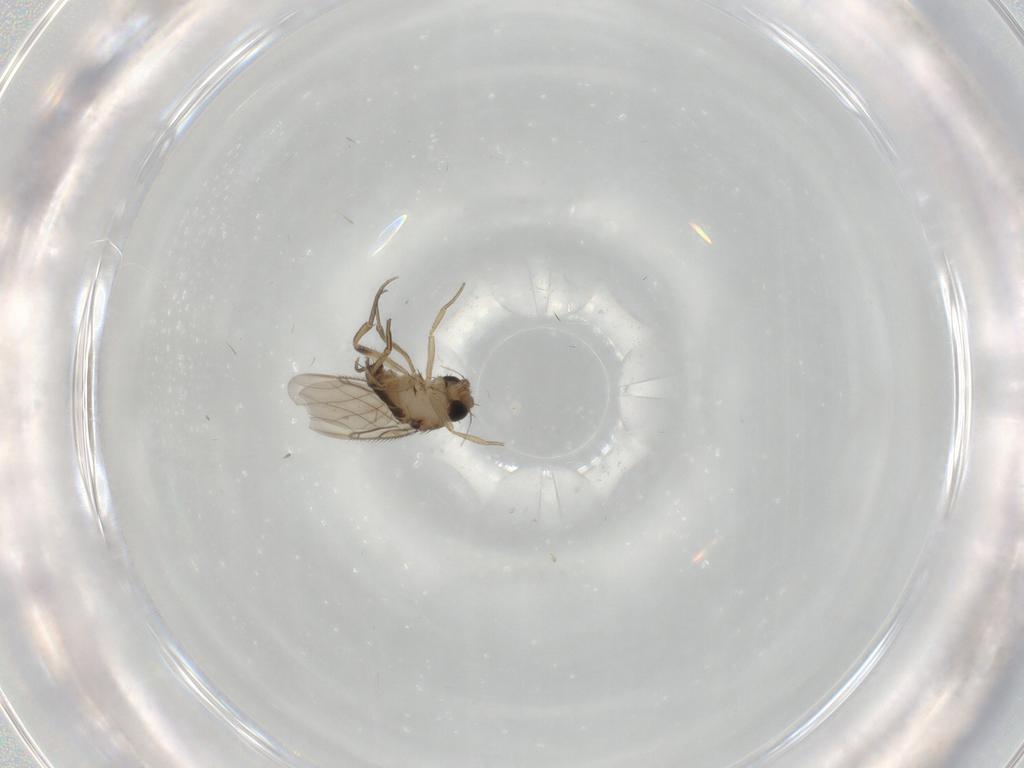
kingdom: Animalia
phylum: Arthropoda
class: Insecta
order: Diptera
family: Phoridae
